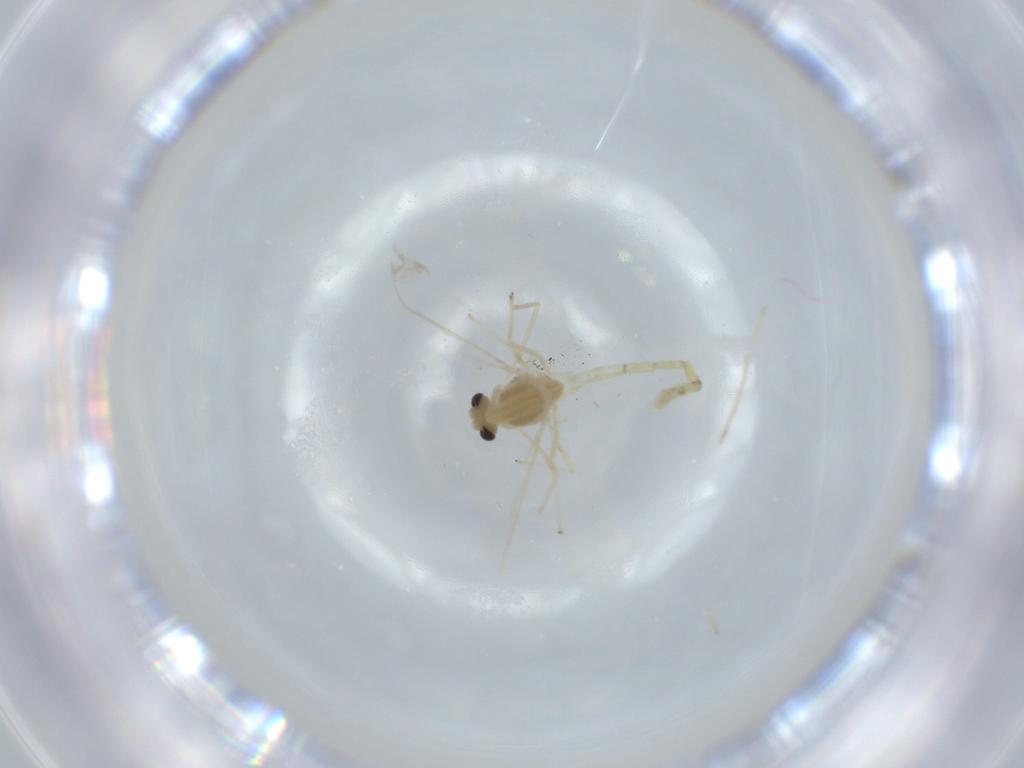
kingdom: Animalia
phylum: Arthropoda
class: Insecta
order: Diptera
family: Chironomidae
